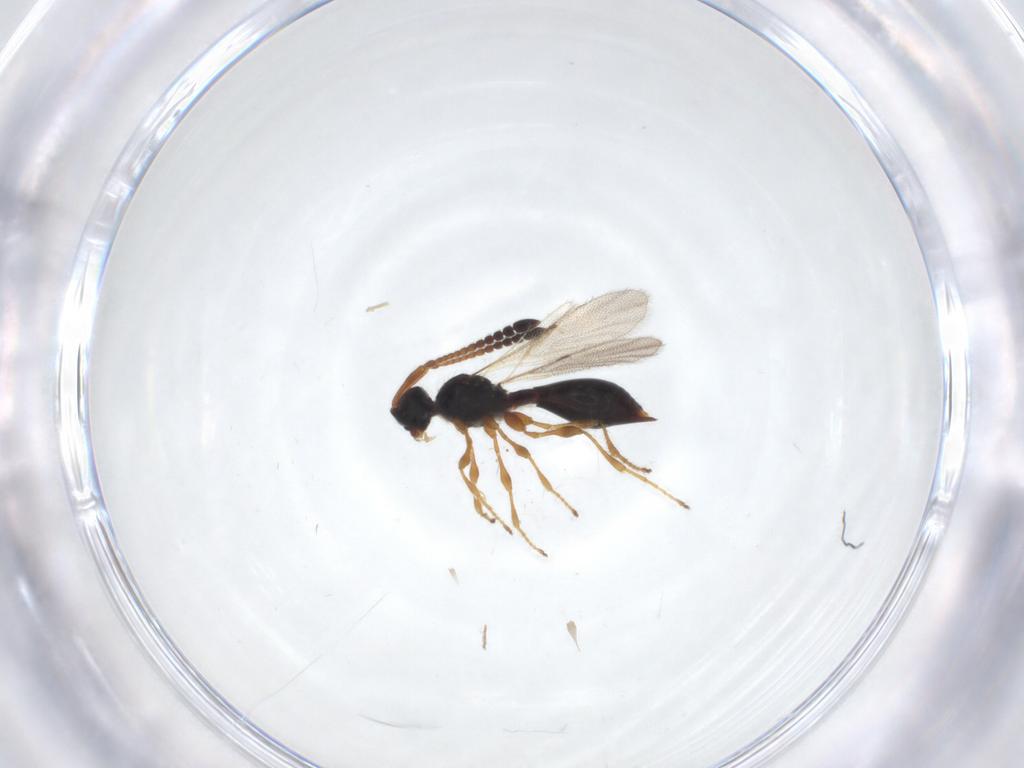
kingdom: Animalia
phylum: Arthropoda
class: Insecta
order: Hymenoptera
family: Diapriidae
